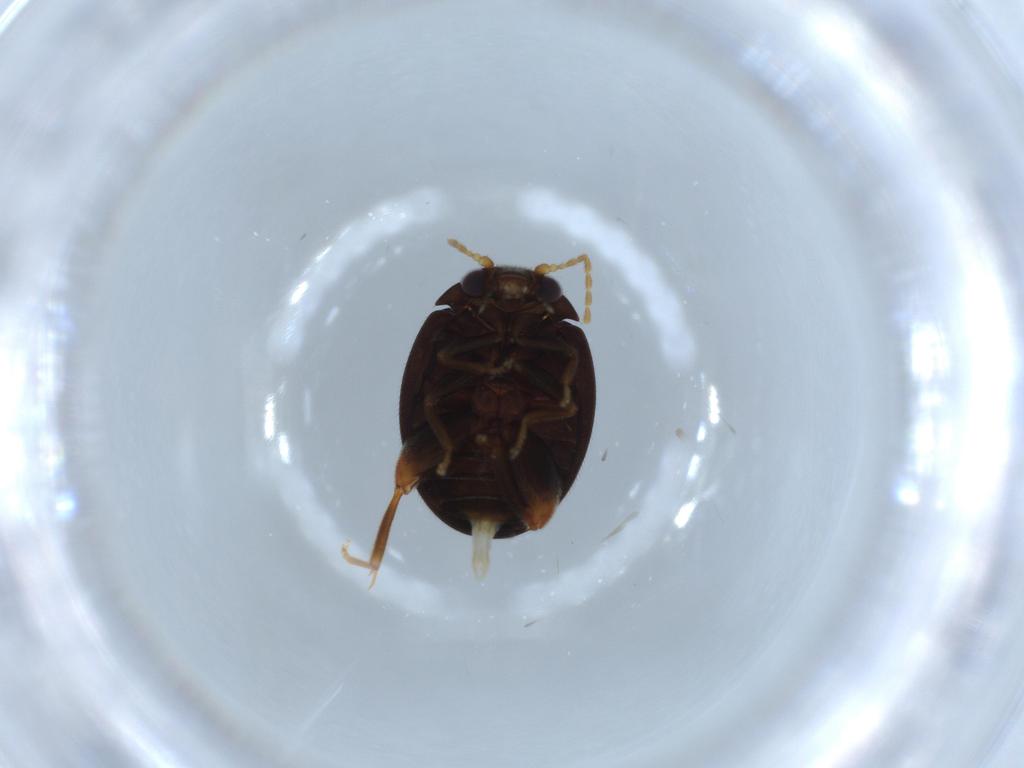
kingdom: Animalia
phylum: Arthropoda
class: Insecta
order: Coleoptera
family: Scirtidae
